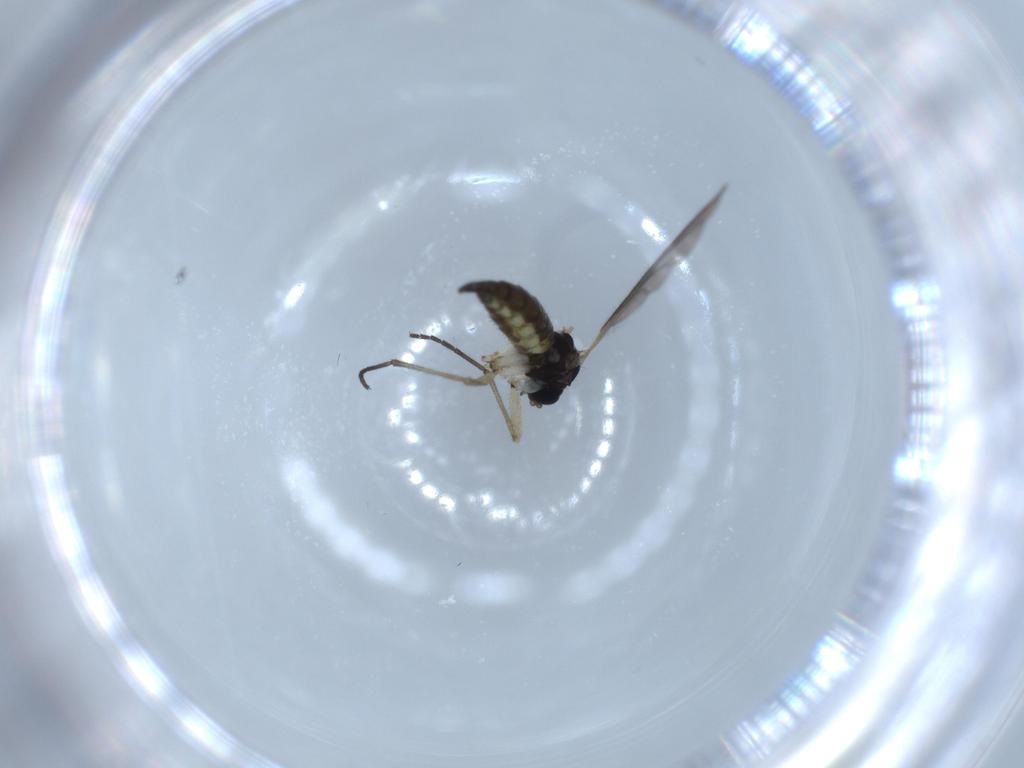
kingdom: Animalia
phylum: Arthropoda
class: Insecta
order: Diptera
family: Sciaridae
